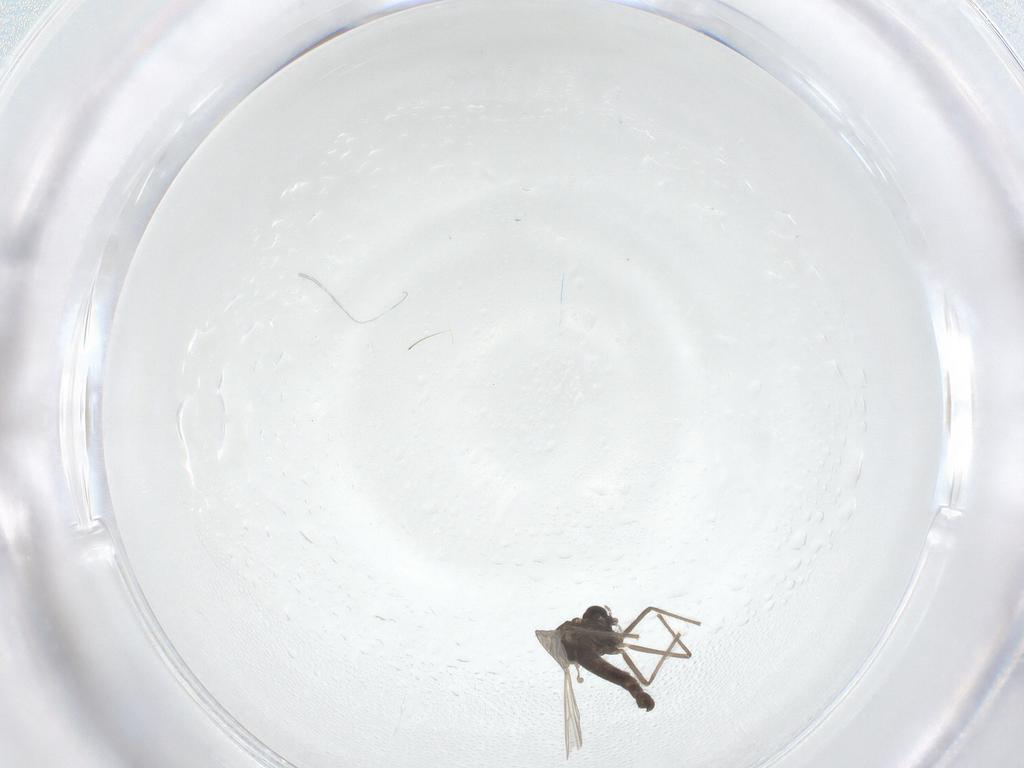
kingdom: Animalia
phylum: Arthropoda
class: Insecta
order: Diptera
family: Chironomidae
